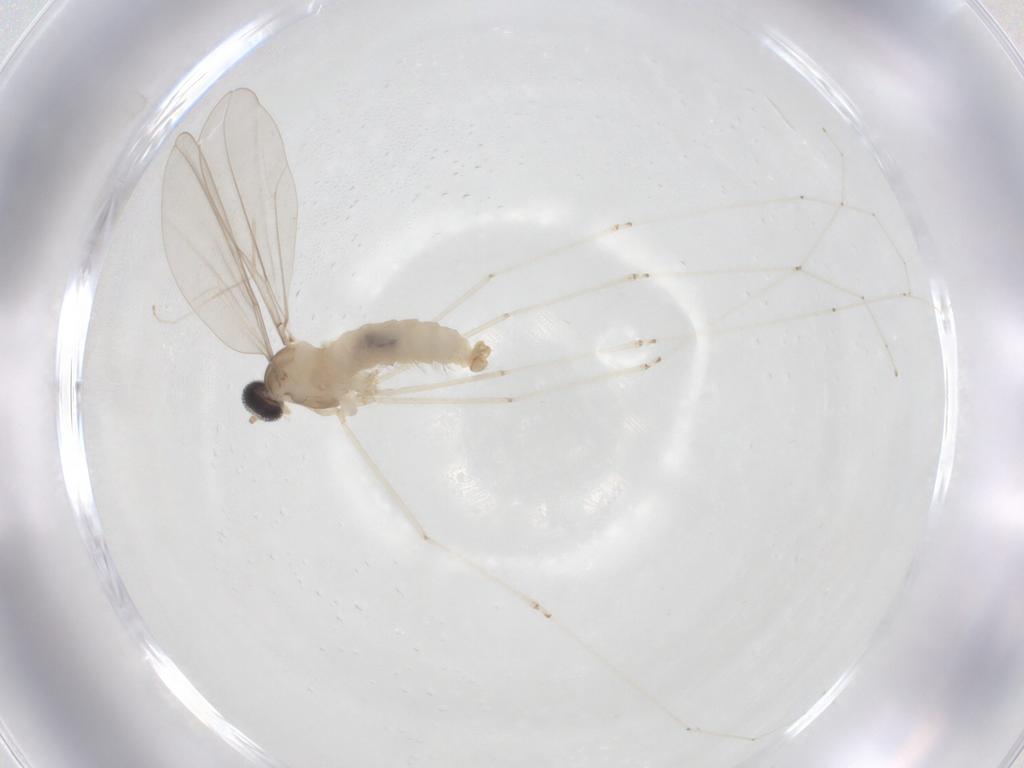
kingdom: Animalia
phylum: Arthropoda
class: Insecta
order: Diptera
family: Cecidomyiidae
